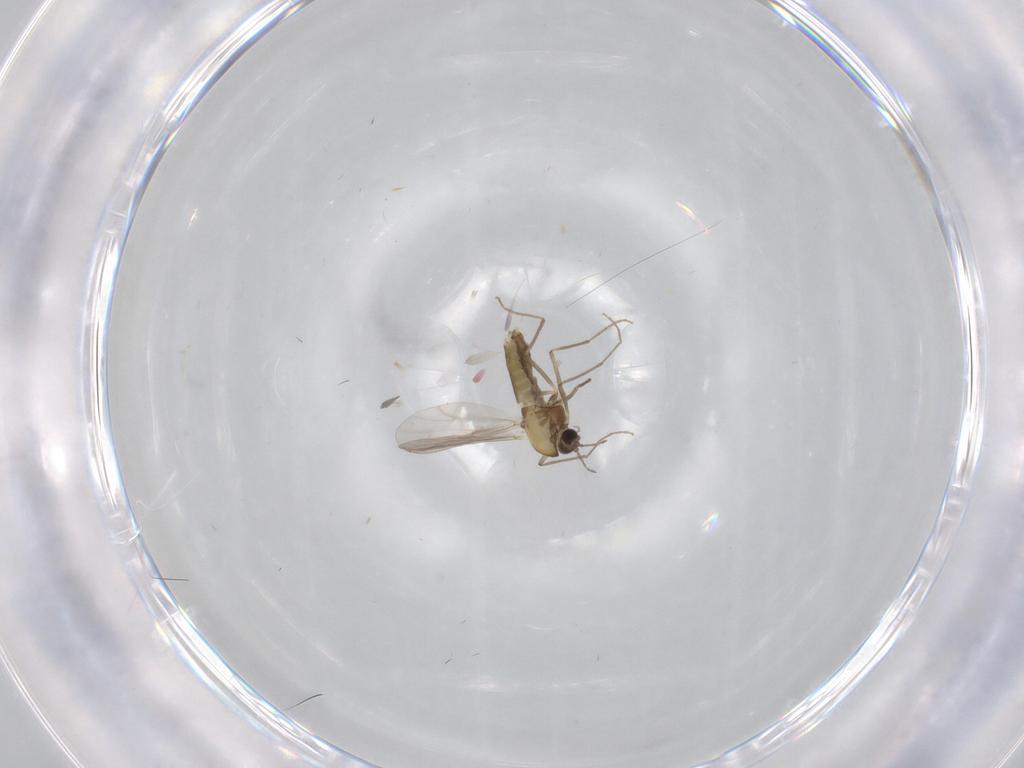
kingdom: Animalia
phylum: Arthropoda
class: Insecta
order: Diptera
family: Chironomidae
